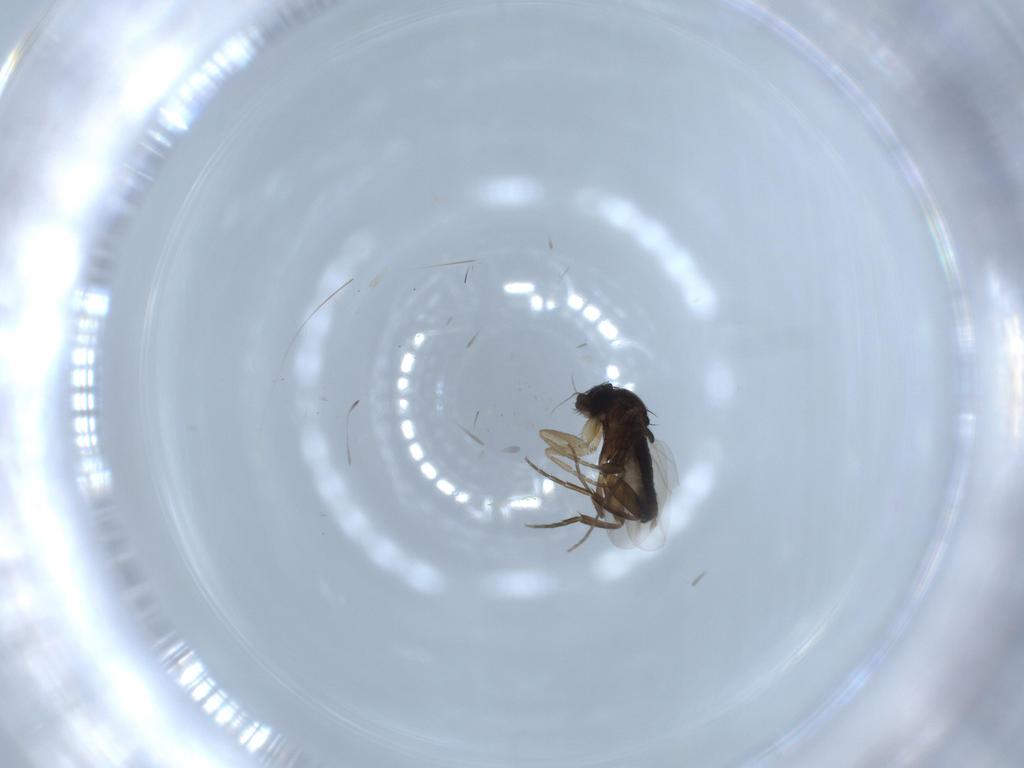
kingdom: Animalia
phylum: Arthropoda
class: Insecta
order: Diptera
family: Phoridae
